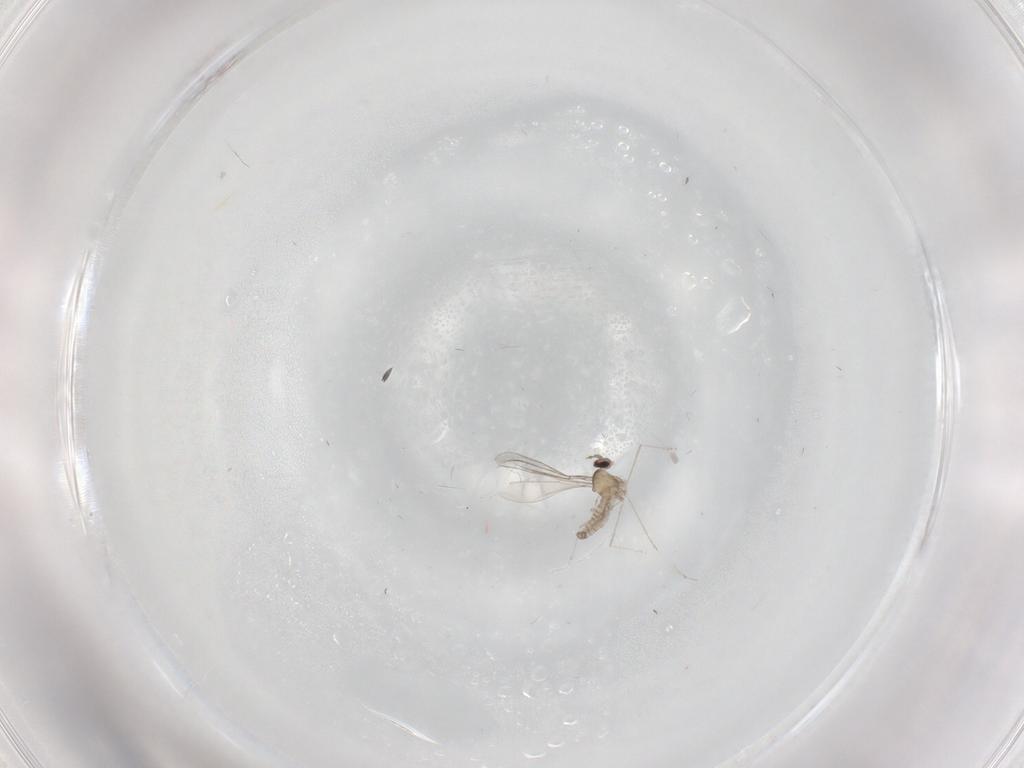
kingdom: Animalia
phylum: Arthropoda
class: Insecta
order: Diptera
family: Cecidomyiidae
